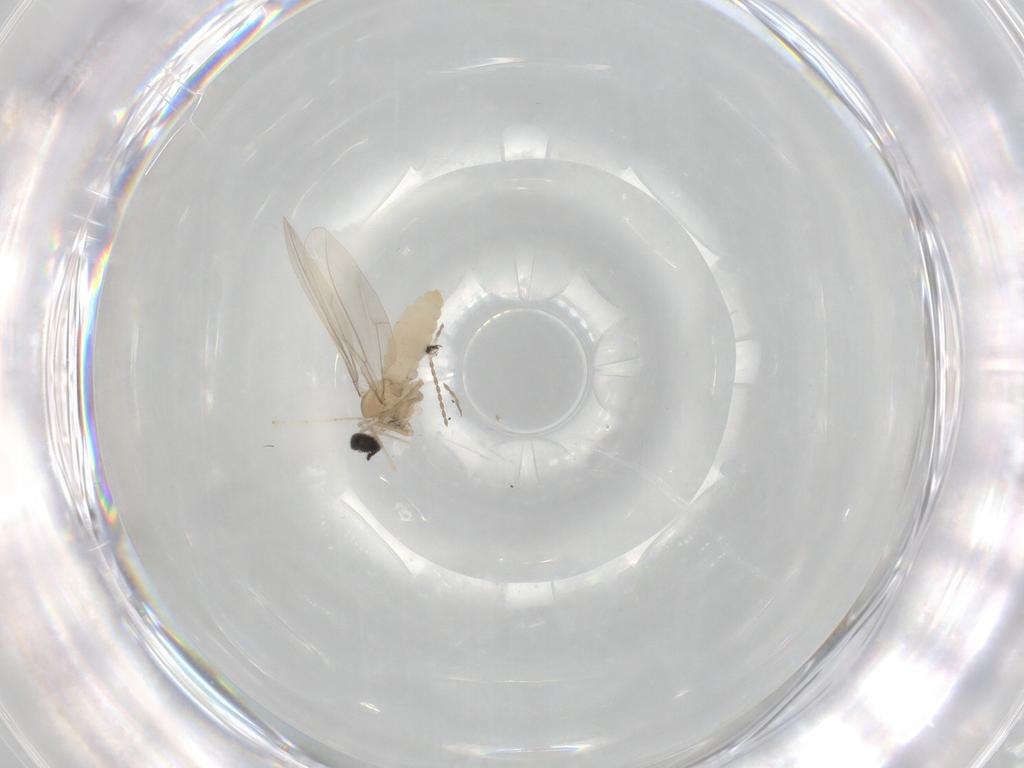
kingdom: Animalia
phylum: Arthropoda
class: Insecta
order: Diptera
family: Cecidomyiidae
